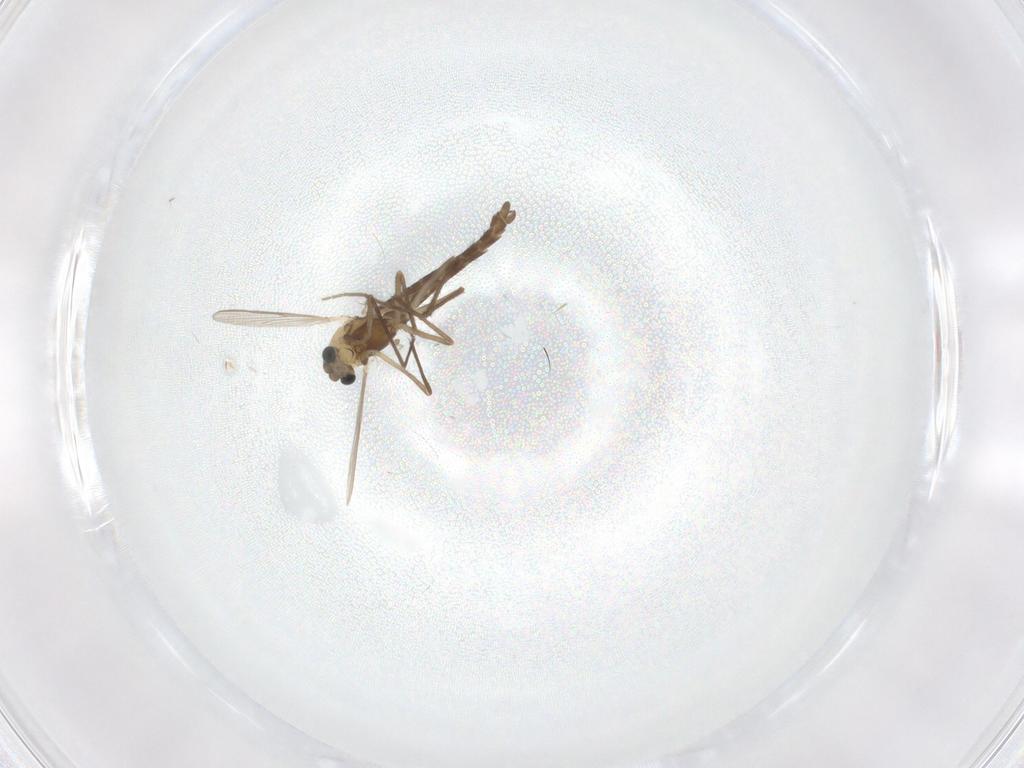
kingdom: Animalia
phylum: Arthropoda
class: Insecta
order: Diptera
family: Chironomidae
